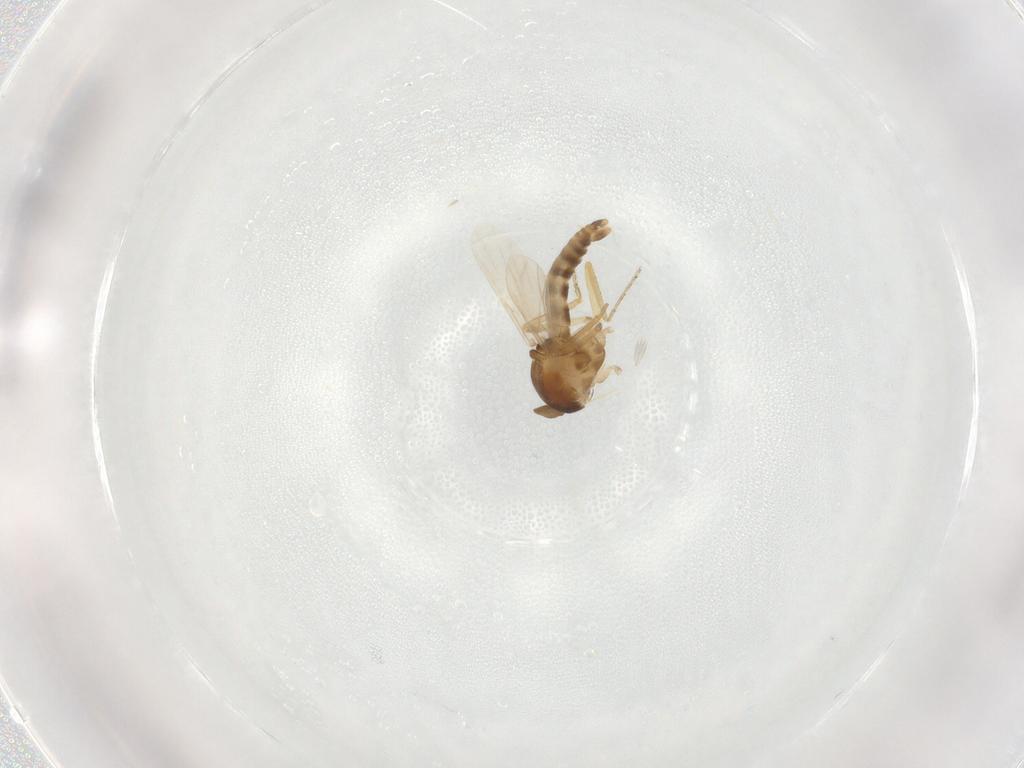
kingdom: Animalia
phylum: Arthropoda
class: Insecta
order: Diptera
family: Ceratopogonidae
